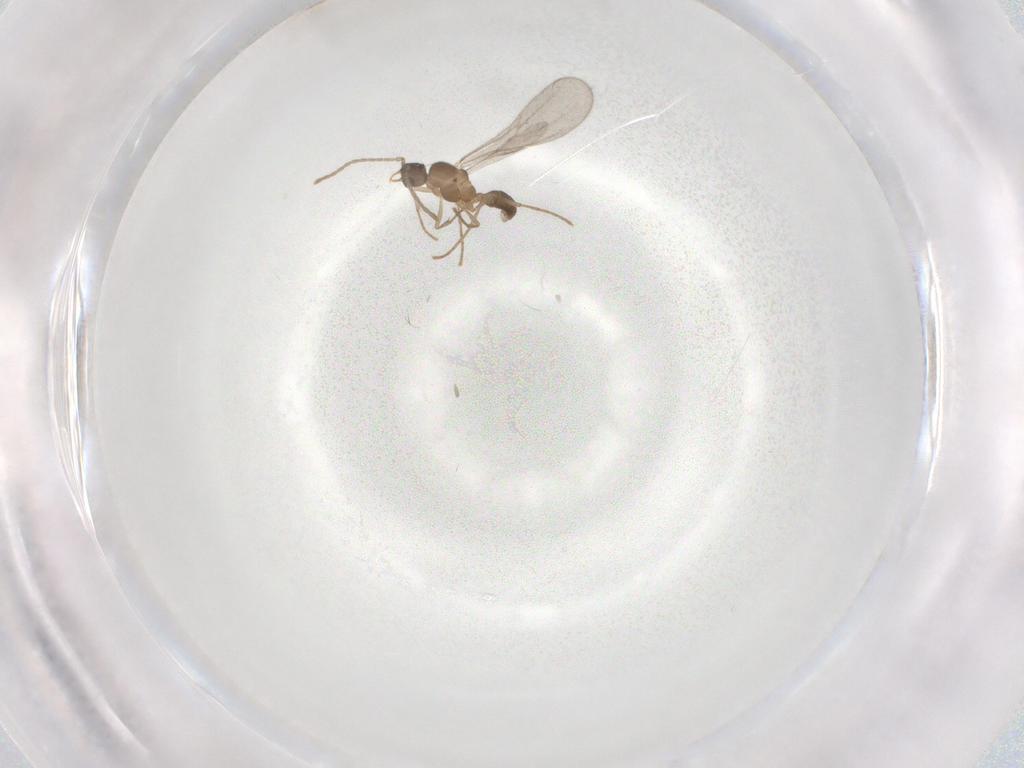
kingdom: Animalia
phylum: Arthropoda
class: Insecta
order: Hymenoptera
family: Formicidae
